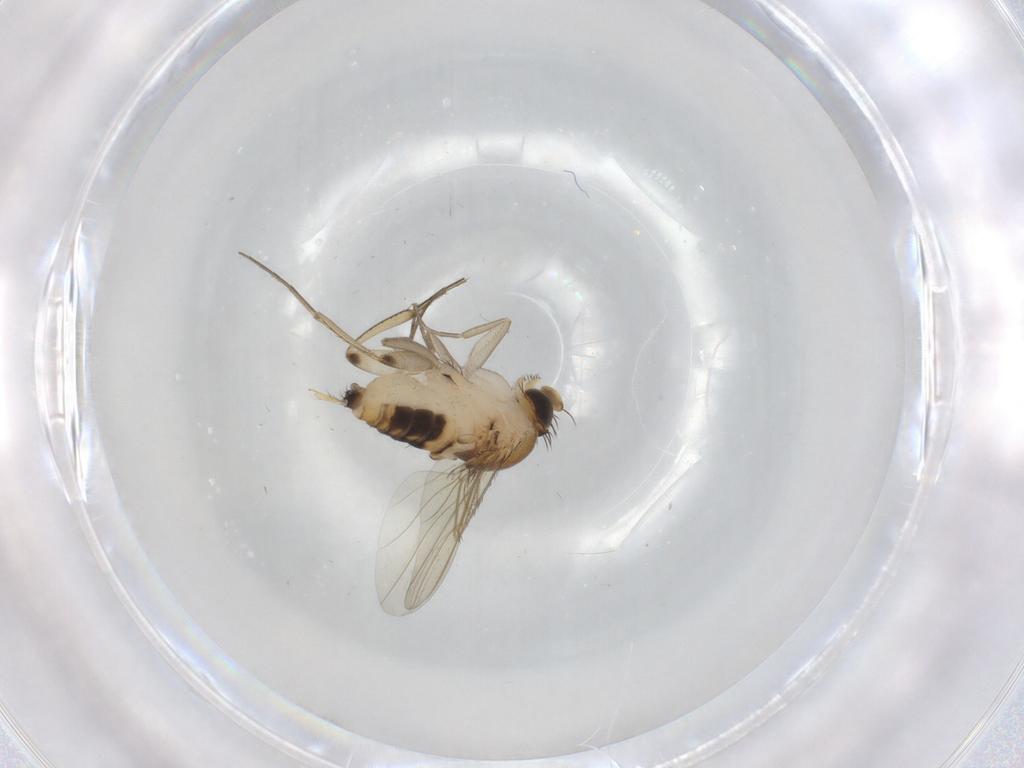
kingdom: Animalia
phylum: Arthropoda
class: Insecta
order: Diptera
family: Phoridae
